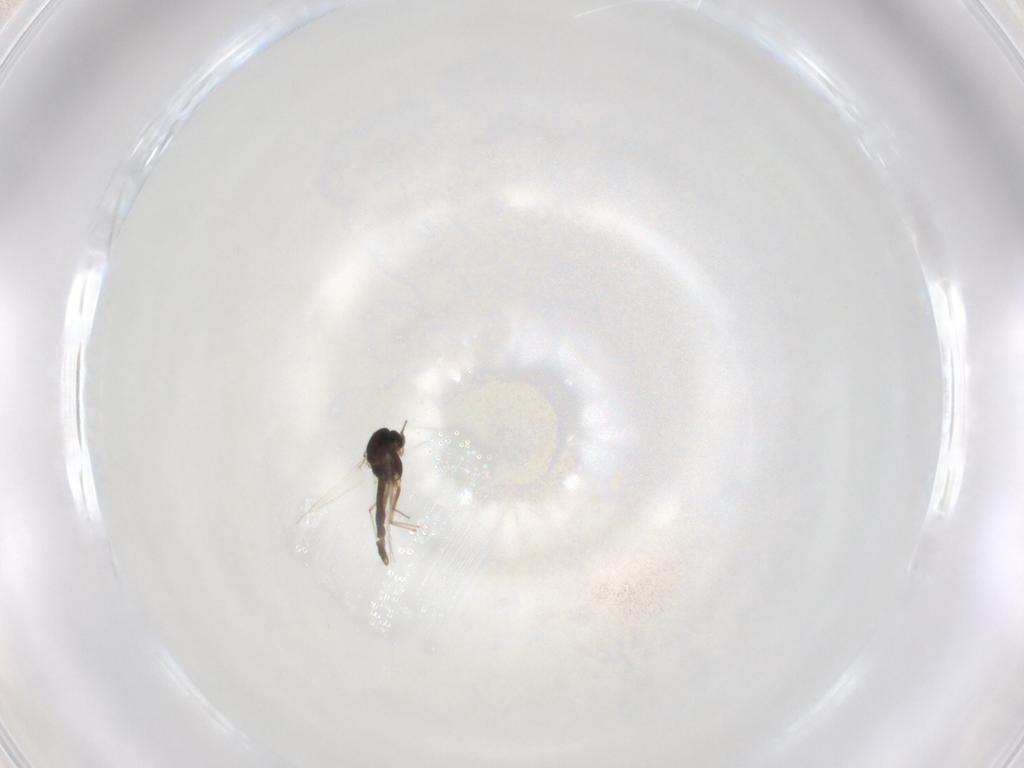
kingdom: Animalia
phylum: Arthropoda
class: Insecta
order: Diptera
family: Chironomidae
